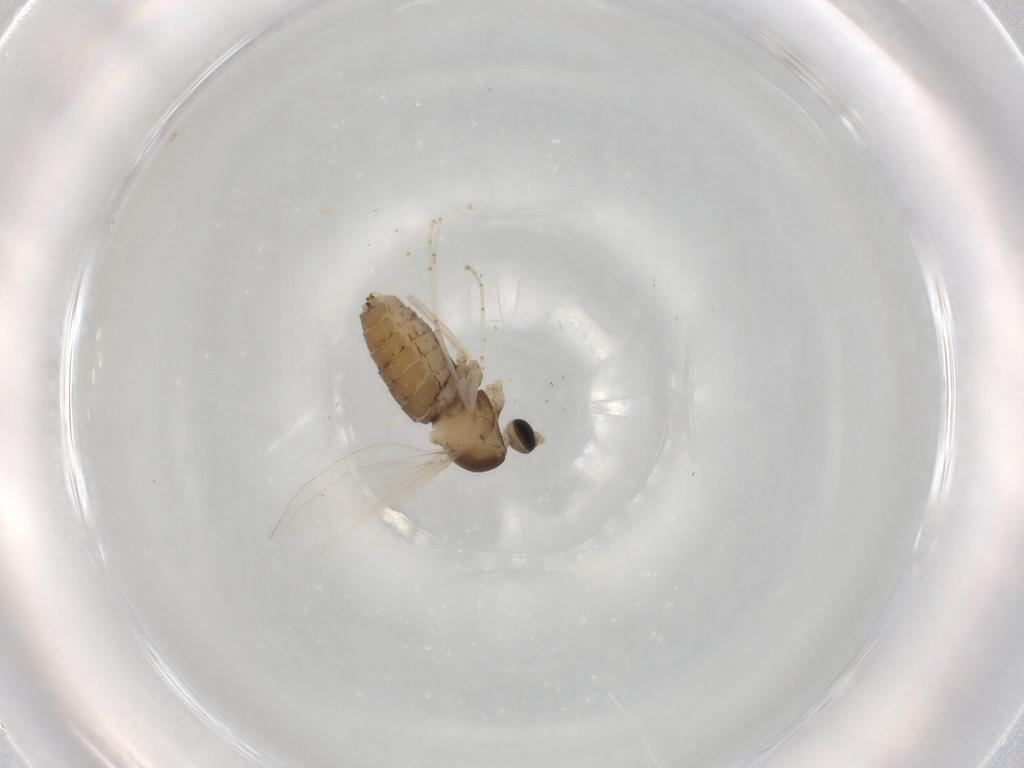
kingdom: Animalia
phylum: Arthropoda
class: Insecta
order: Diptera
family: Cecidomyiidae
